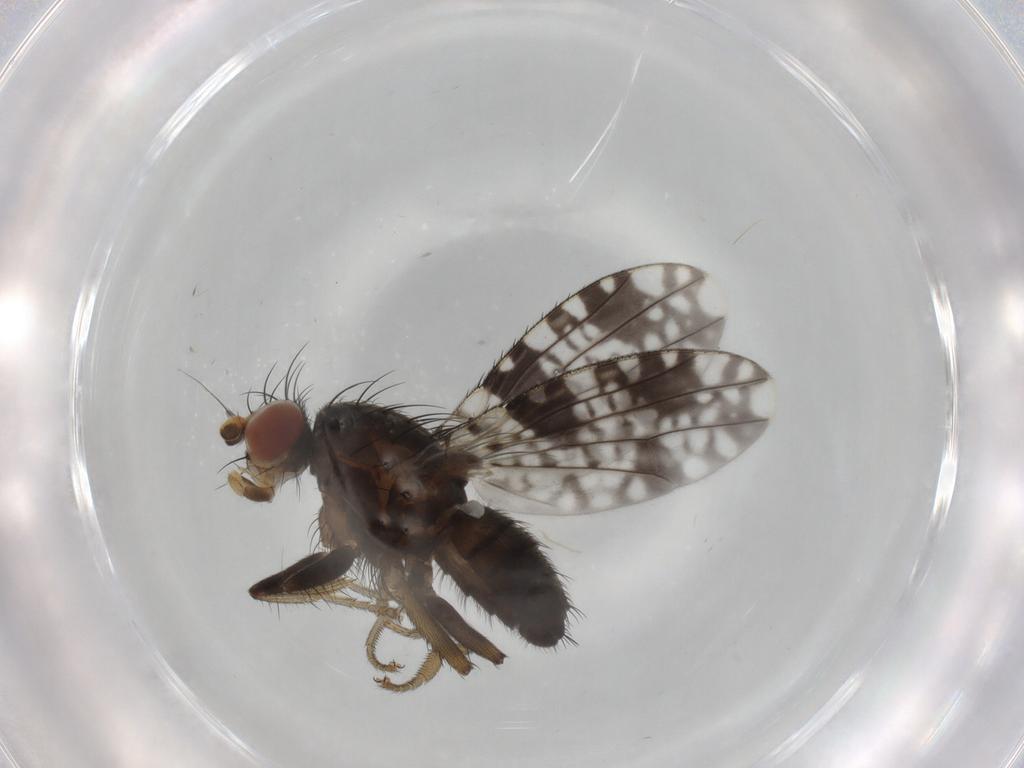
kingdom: Animalia
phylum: Arthropoda
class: Insecta
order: Diptera
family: Tephritidae
